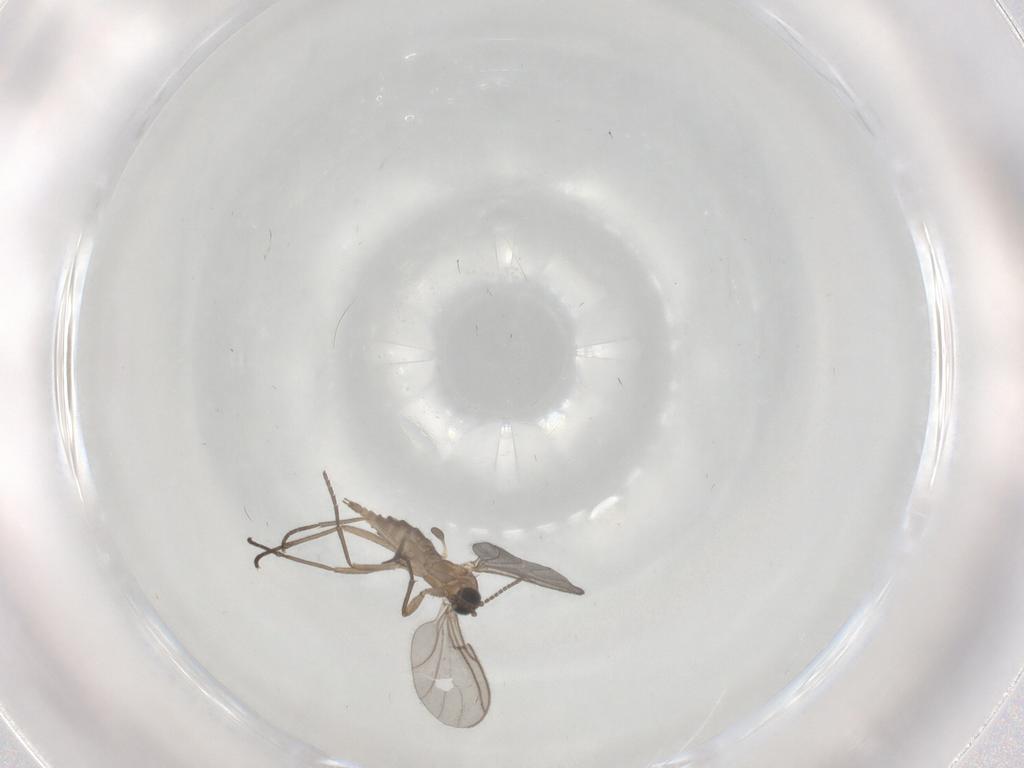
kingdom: Animalia
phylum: Arthropoda
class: Insecta
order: Diptera
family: Sciaridae
